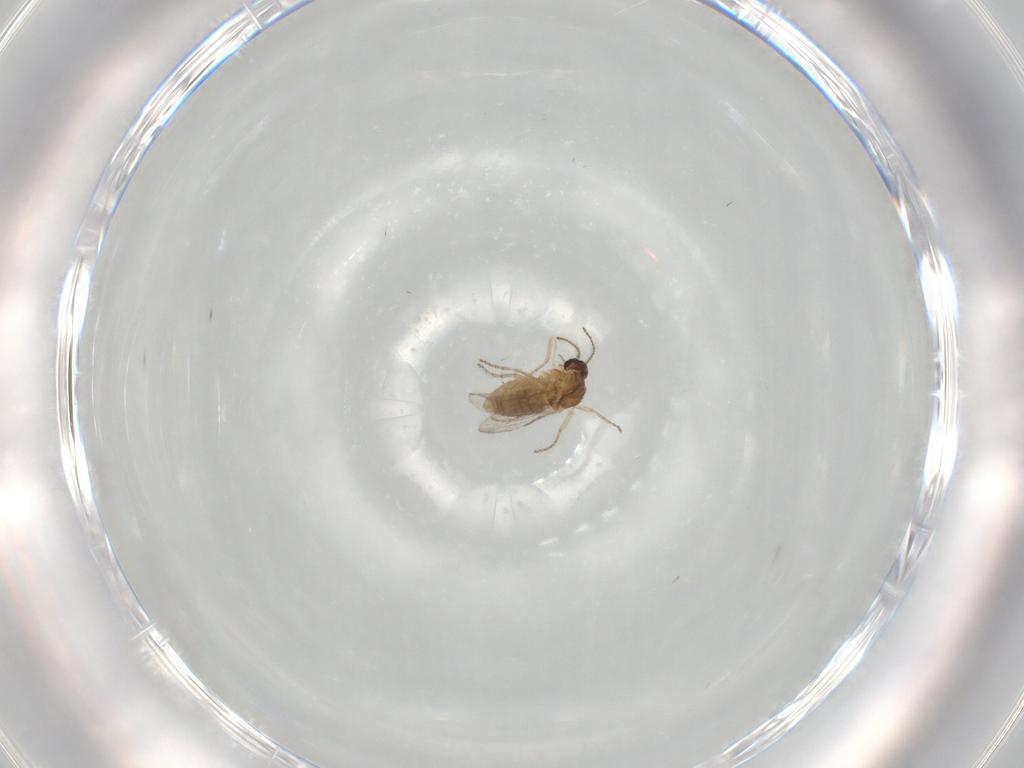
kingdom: Animalia
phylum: Arthropoda
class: Insecta
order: Diptera
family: Ceratopogonidae
